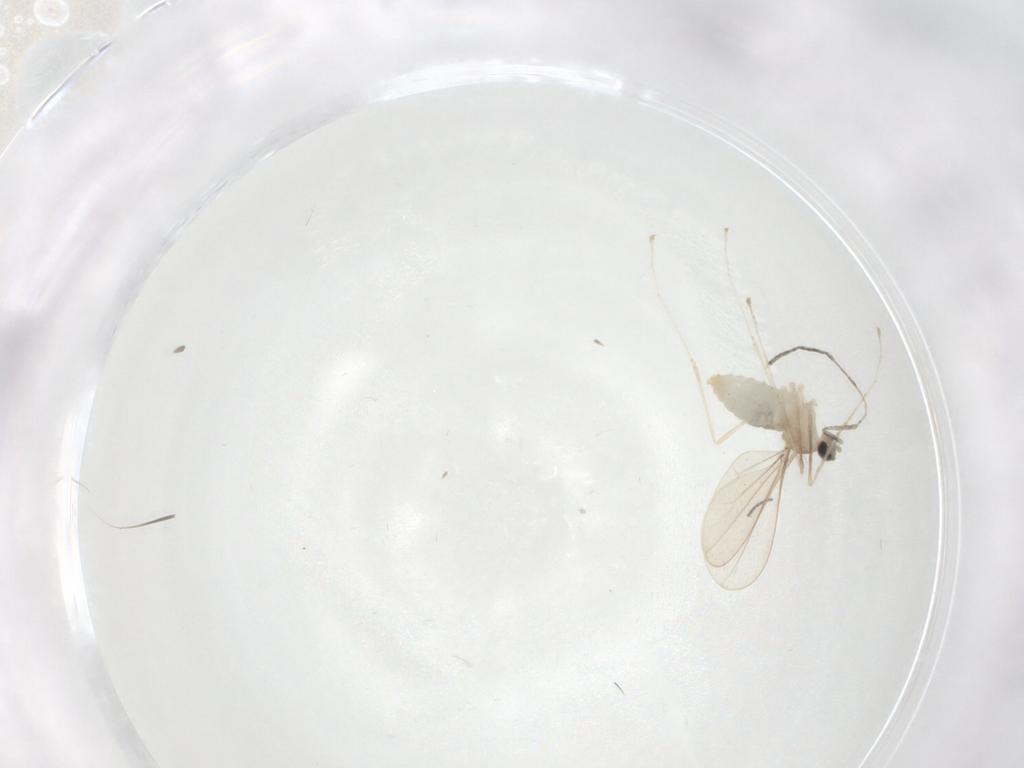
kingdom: Animalia
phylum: Arthropoda
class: Insecta
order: Diptera
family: Cecidomyiidae
